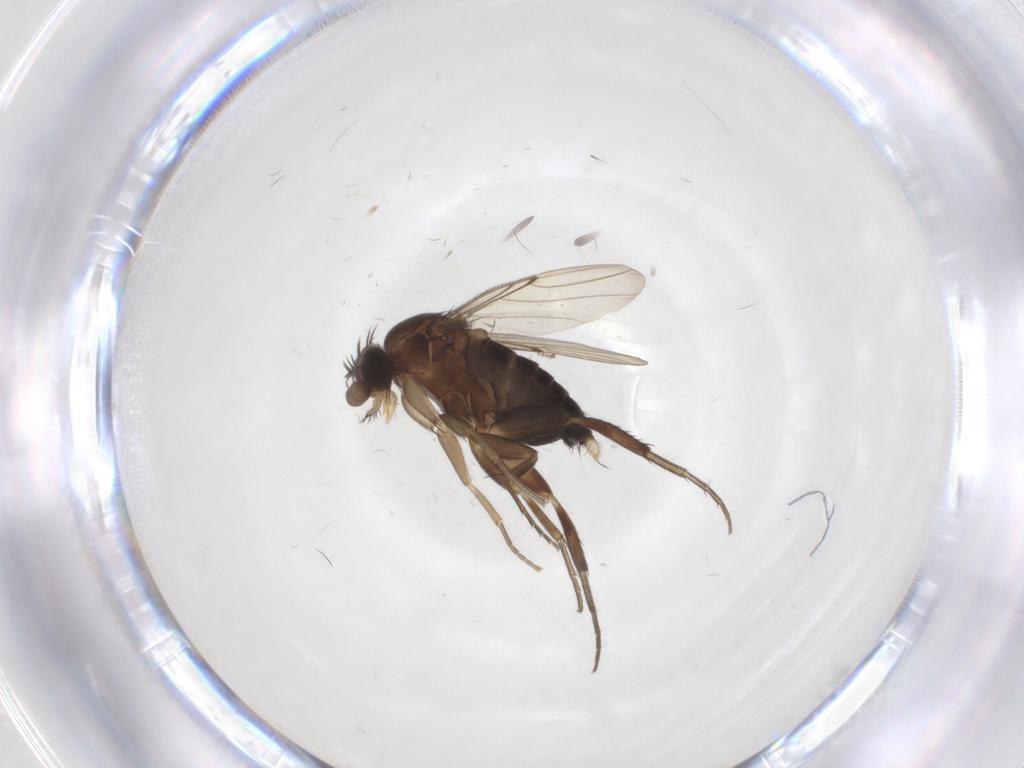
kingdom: Animalia
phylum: Arthropoda
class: Insecta
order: Diptera
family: Phoridae
